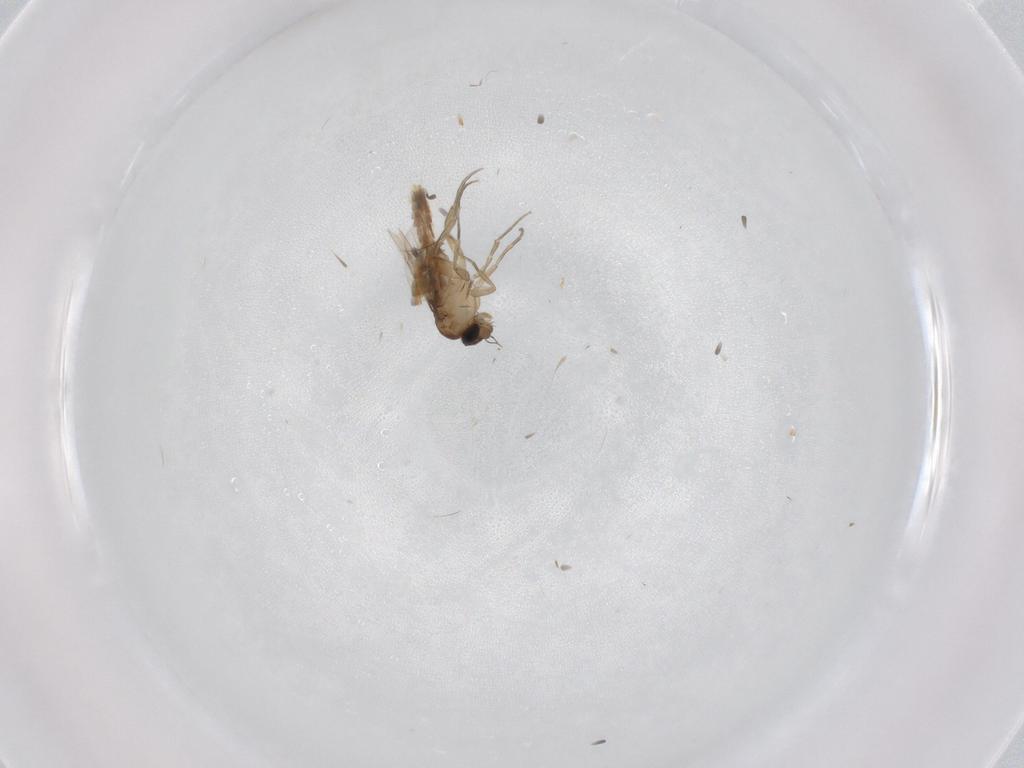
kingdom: Animalia
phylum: Arthropoda
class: Insecta
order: Diptera
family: Phoridae
